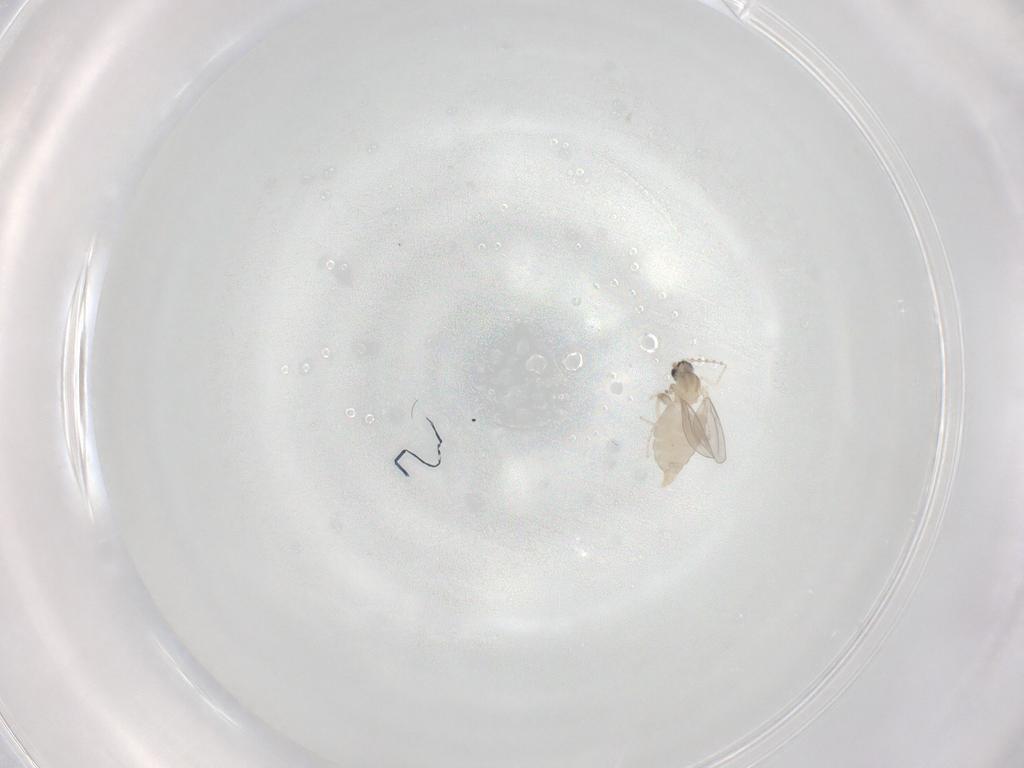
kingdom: Animalia
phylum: Arthropoda
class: Insecta
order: Diptera
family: Cecidomyiidae
